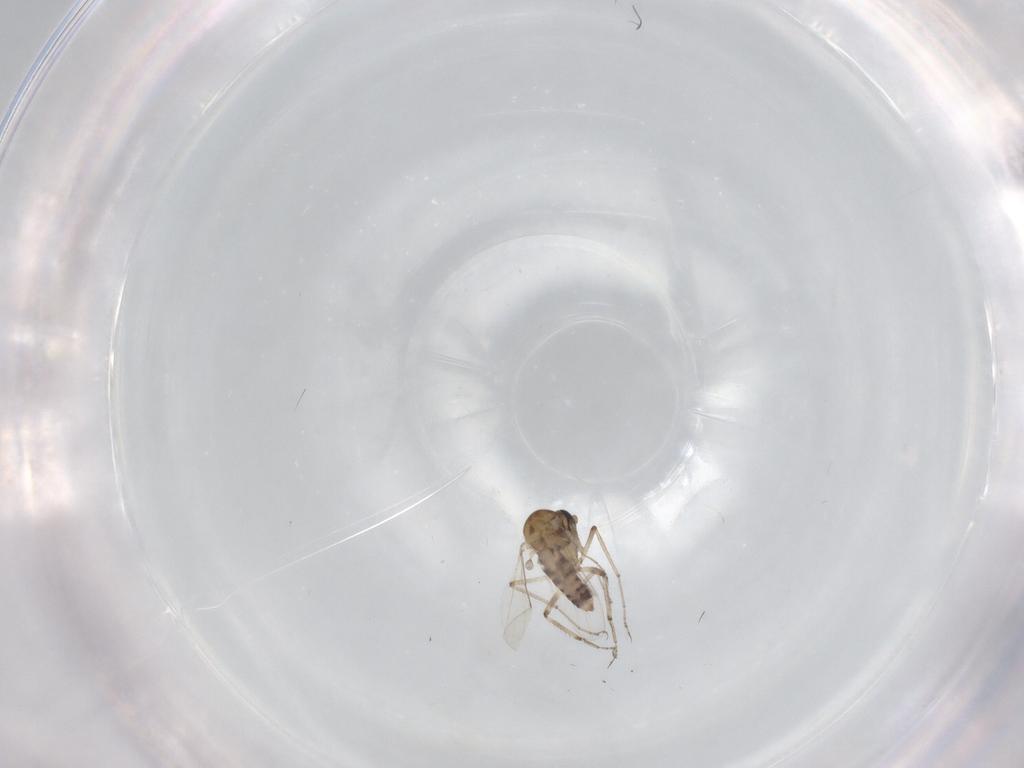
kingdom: Animalia
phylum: Arthropoda
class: Insecta
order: Diptera
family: Ceratopogonidae
